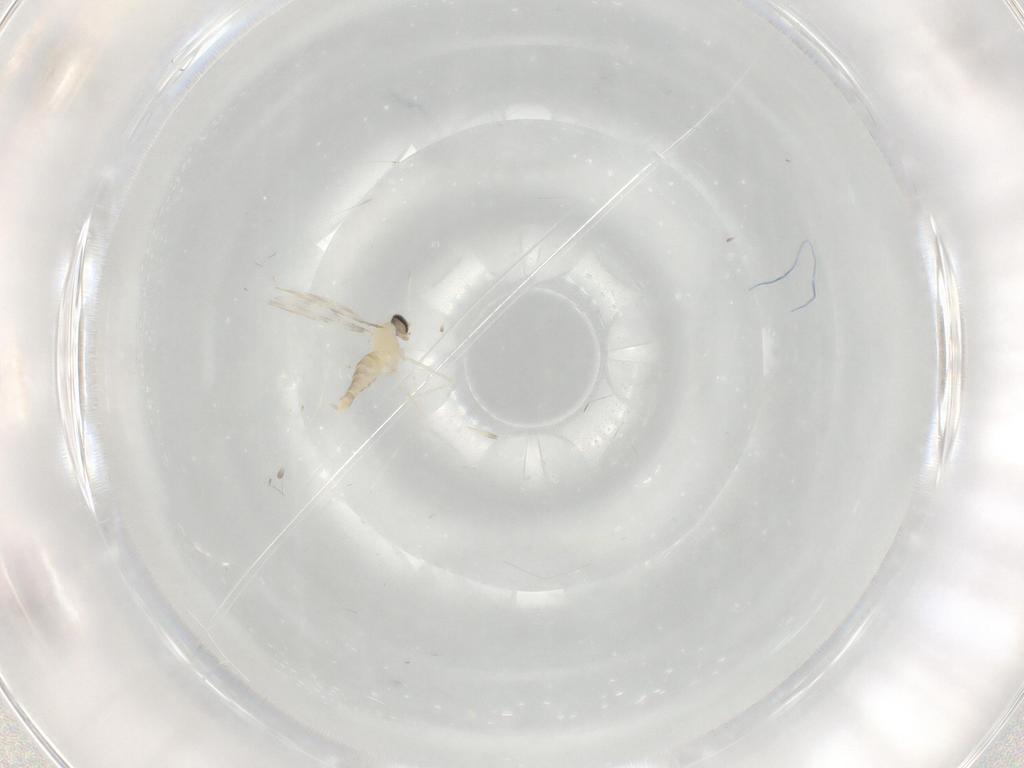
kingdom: Animalia
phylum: Arthropoda
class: Insecta
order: Diptera
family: Cecidomyiidae
